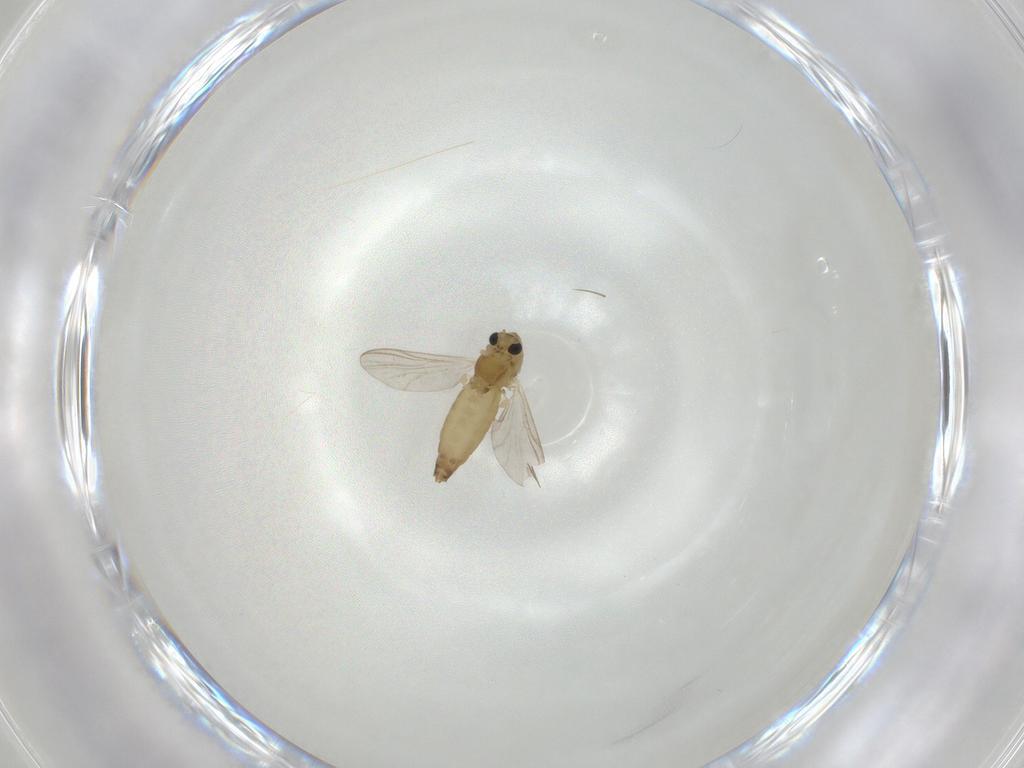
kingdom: Animalia
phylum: Arthropoda
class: Insecta
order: Diptera
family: Chironomidae
